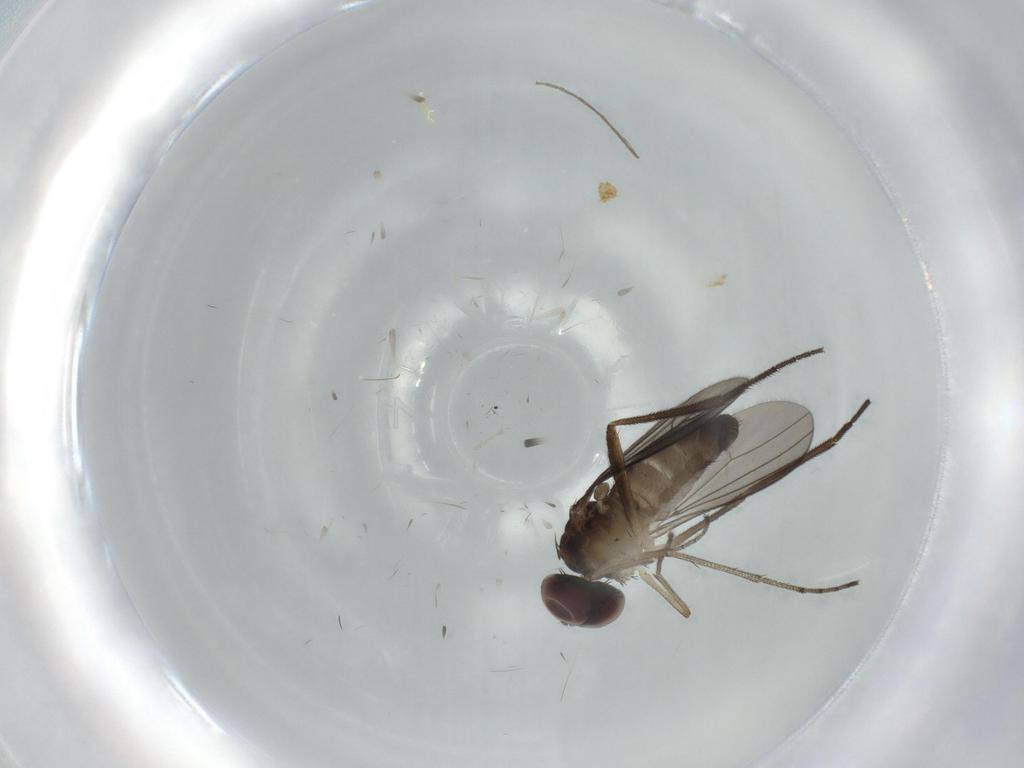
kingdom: Animalia
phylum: Arthropoda
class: Insecta
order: Diptera
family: Dolichopodidae
